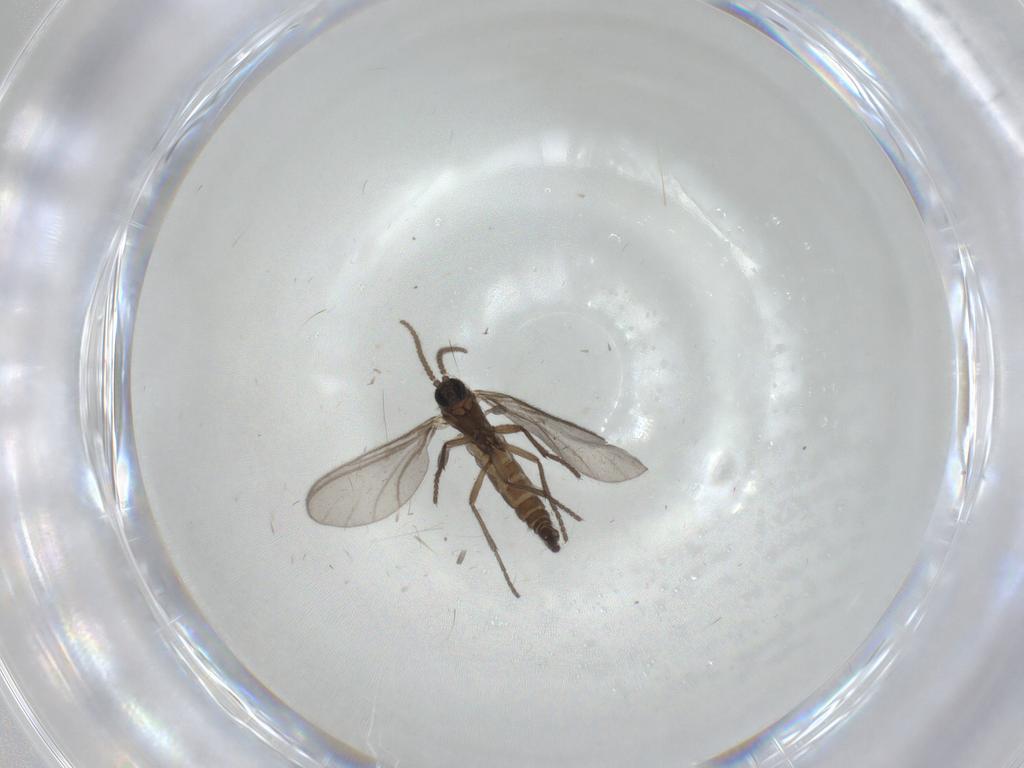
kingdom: Animalia
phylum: Arthropoda
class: Insecta
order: Diptera
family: Sciaridae
